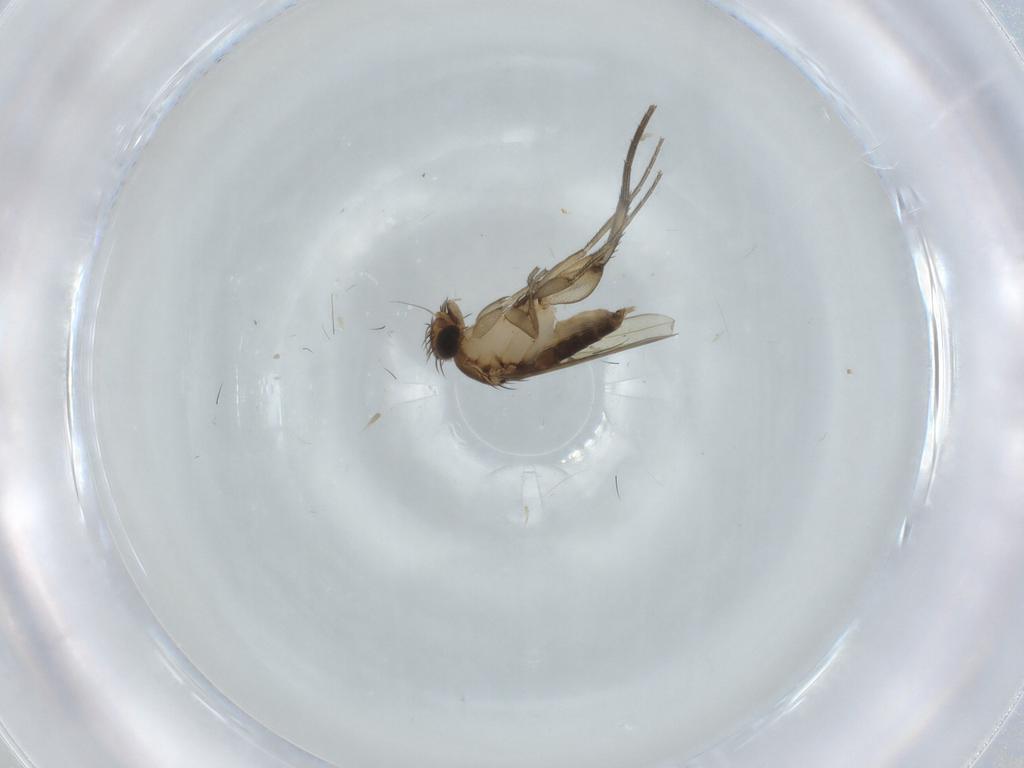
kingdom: Animalia
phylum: Arthropoda
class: Insecta
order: Diptera
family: Phoridae
